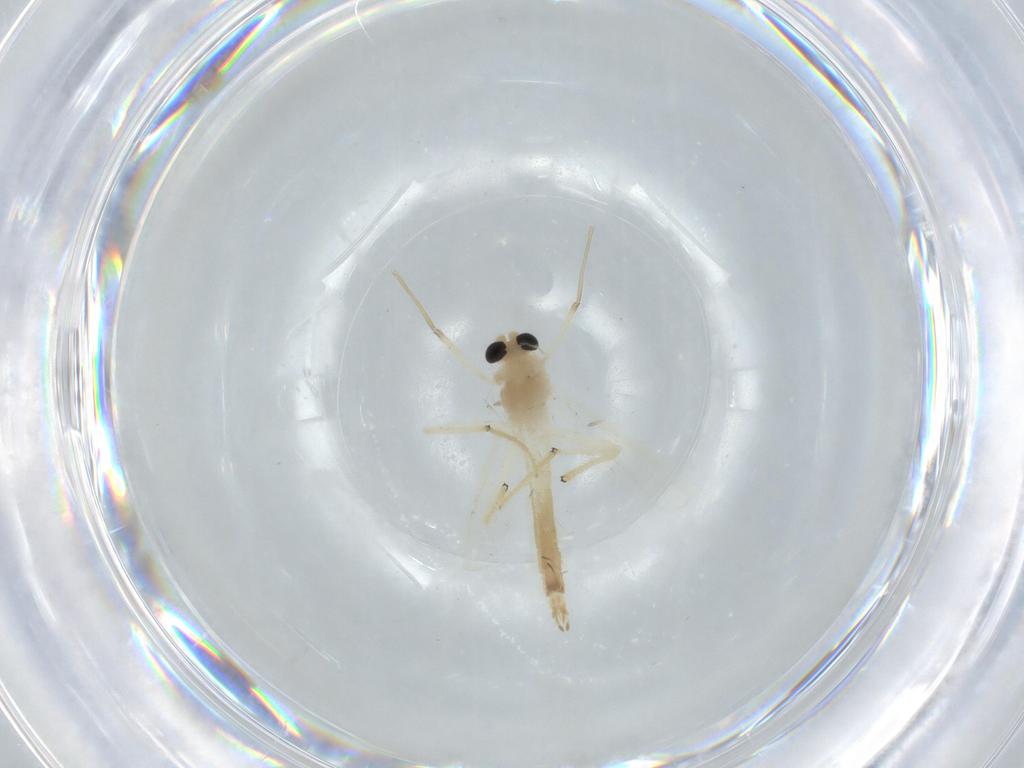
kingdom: Animalia
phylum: Arthropoda
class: Insecta
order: Diptera
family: Chironomidae
